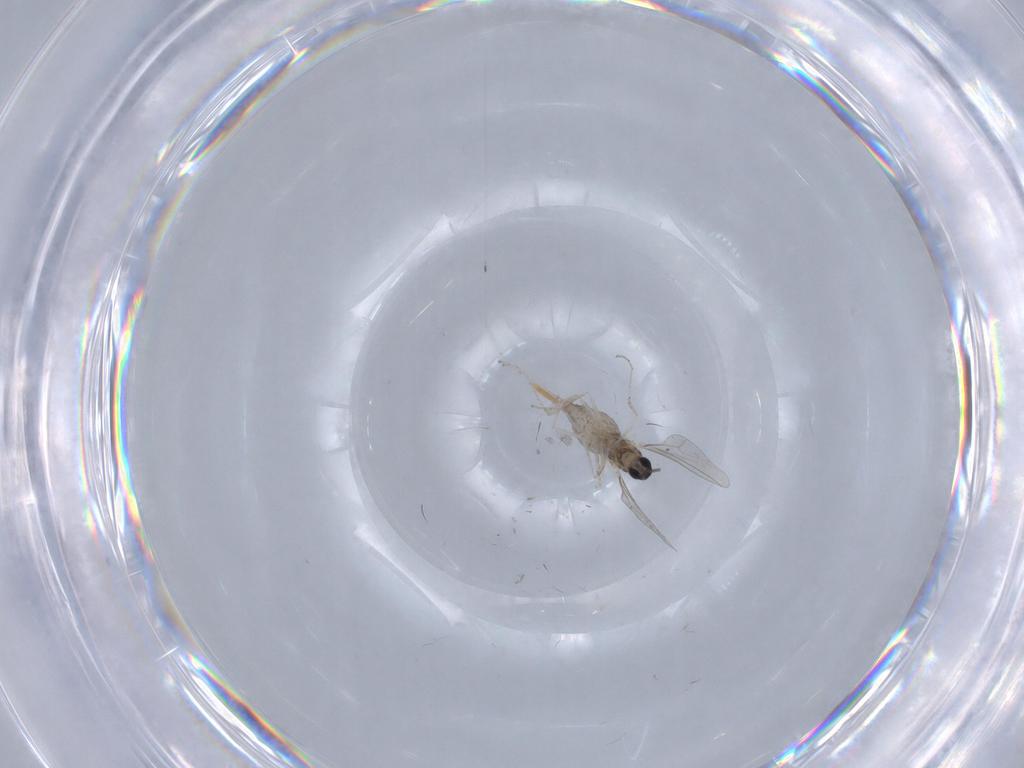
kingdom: Animalia
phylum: Arthropoda
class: Insecta
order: Diptera
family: Cecidomyiidae
